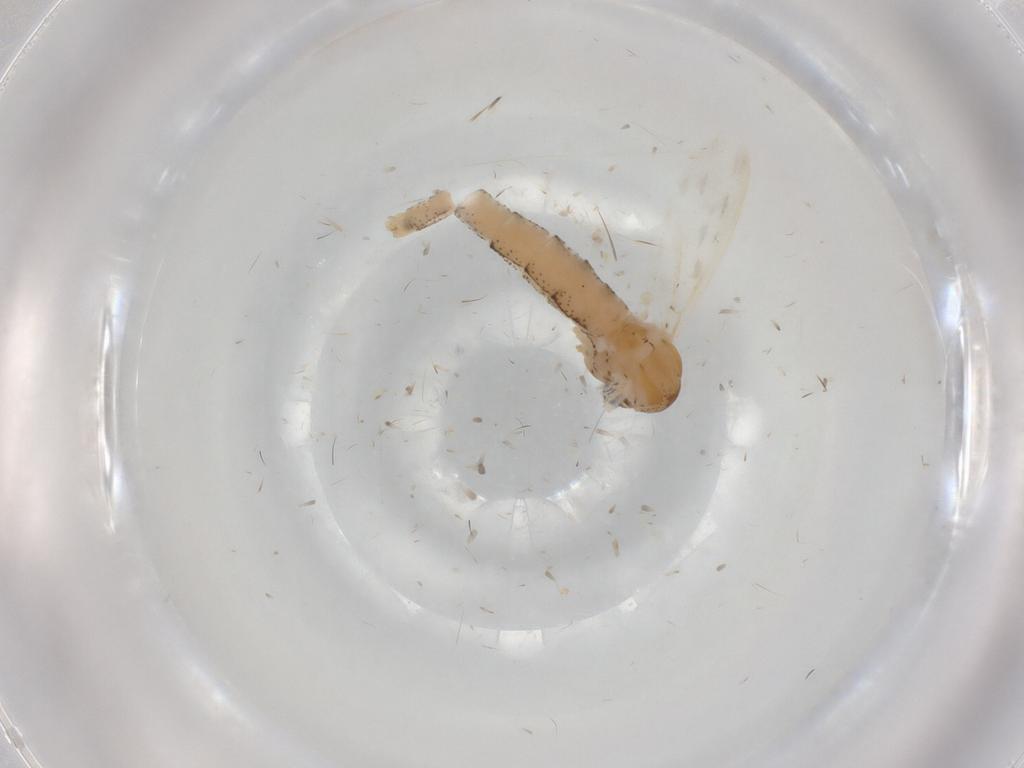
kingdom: Animalia
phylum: Arthropoda
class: Insecta
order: Diptera
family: Chaoboridae
